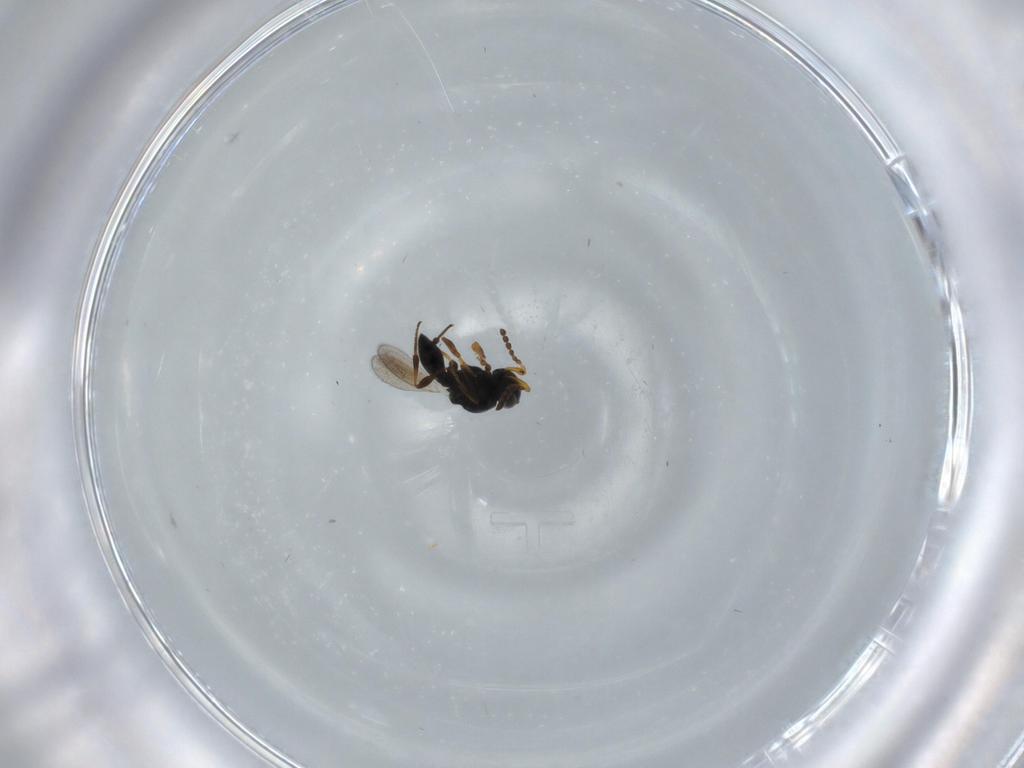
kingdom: Animalia
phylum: Arthropoda
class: Insecta
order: Hymenoptera
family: Platygastridae
